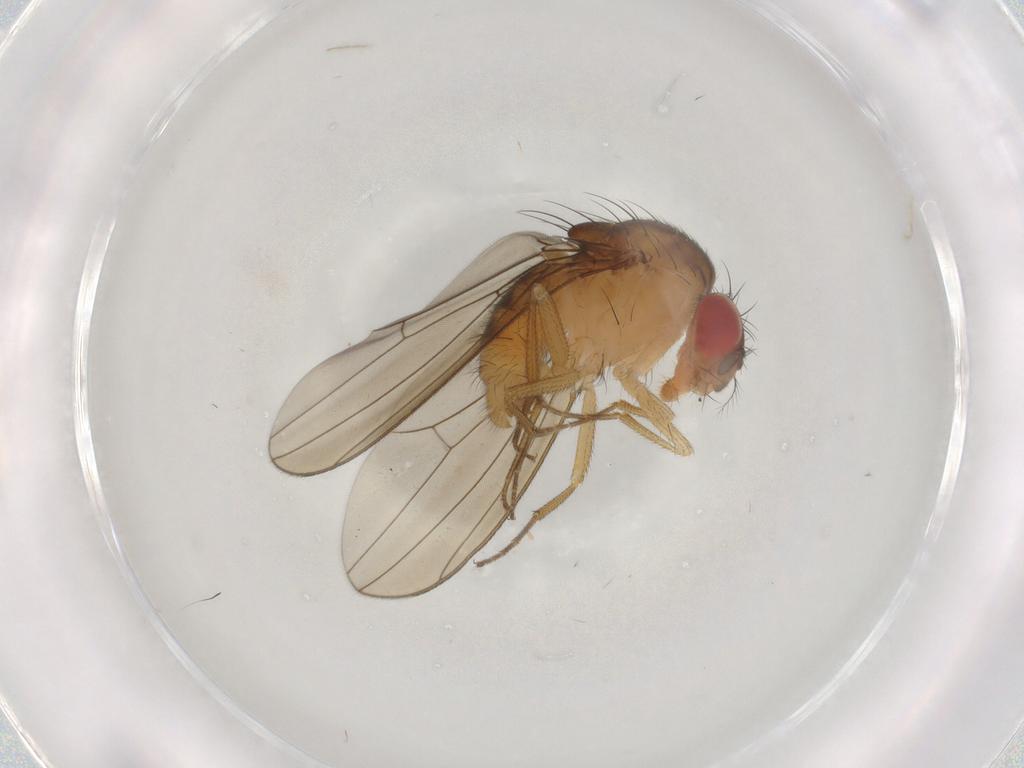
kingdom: Animalia
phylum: Arthropoda
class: Insecta
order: Diptera
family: Drosophilidae
